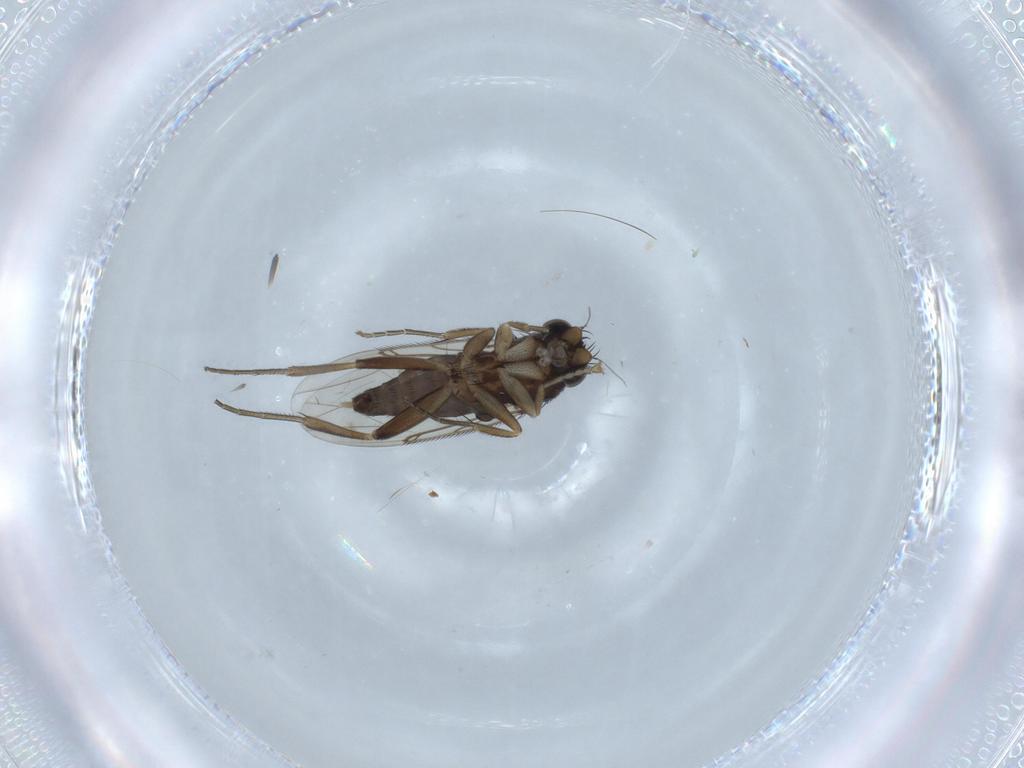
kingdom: Animalia
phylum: Arthropoda
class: Insecta
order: Diptera
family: Phoridae
